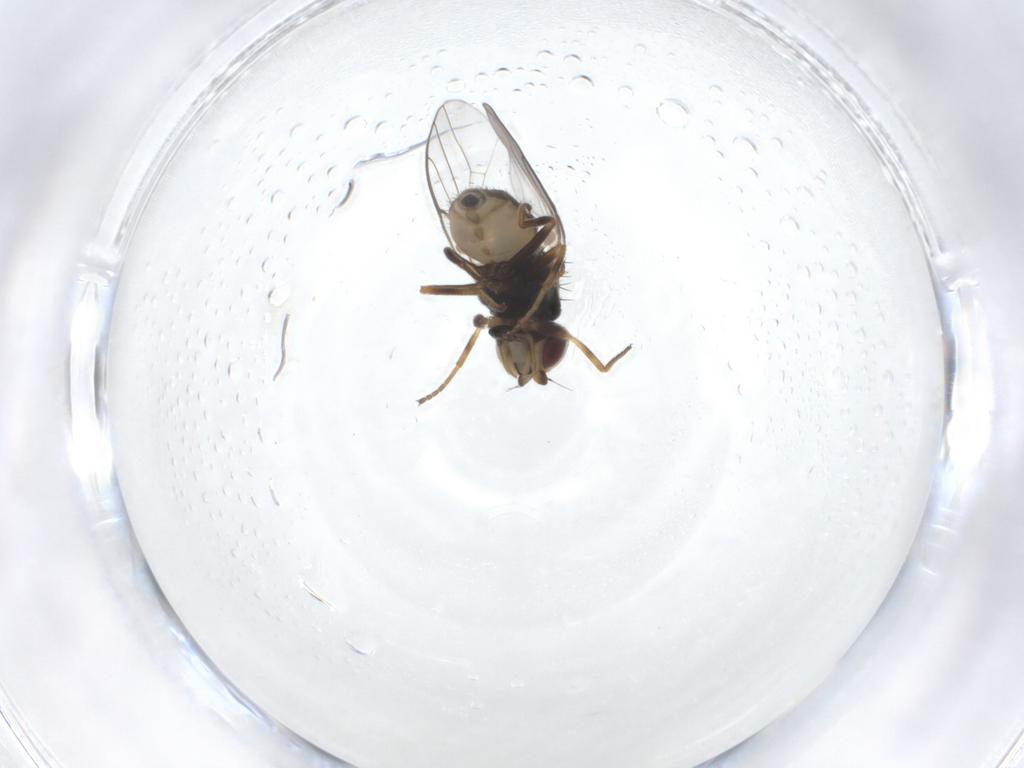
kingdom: Animalia
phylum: Arthropoda
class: Insecta
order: Diptera
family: Chloropidae
